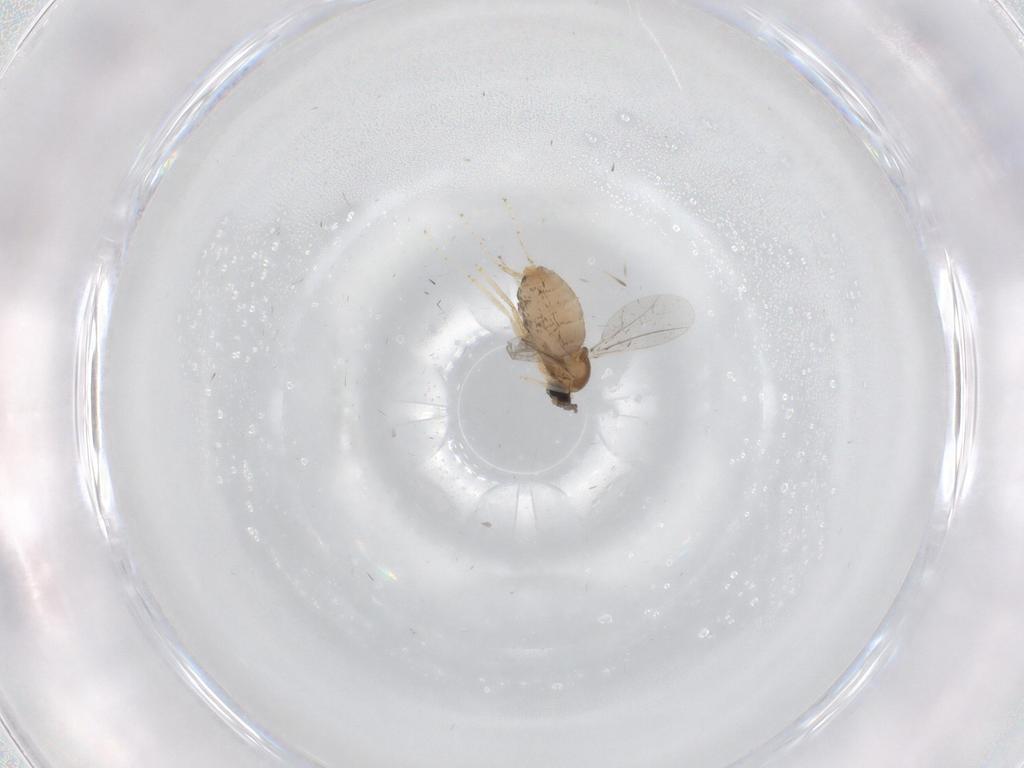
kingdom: Animalia
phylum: Arthropoda
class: Insecta
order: Diptera
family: Cecidomyiidae
